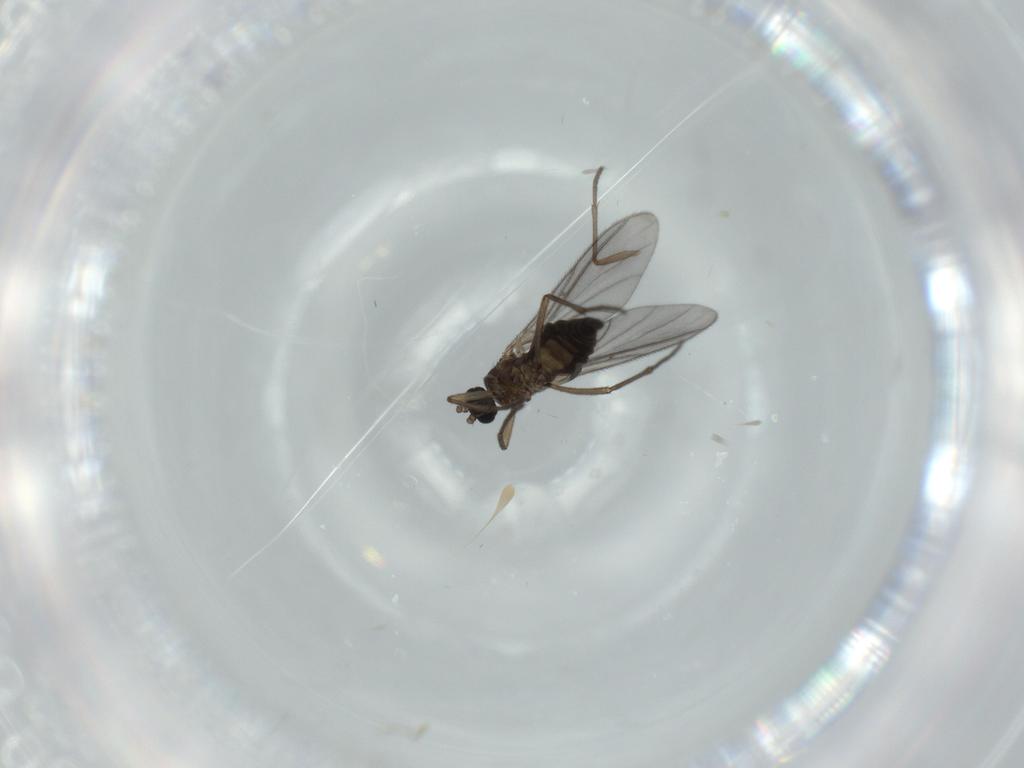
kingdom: Animalia
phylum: Arthropoda
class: Insecta
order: Diptera
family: Sciaridae
